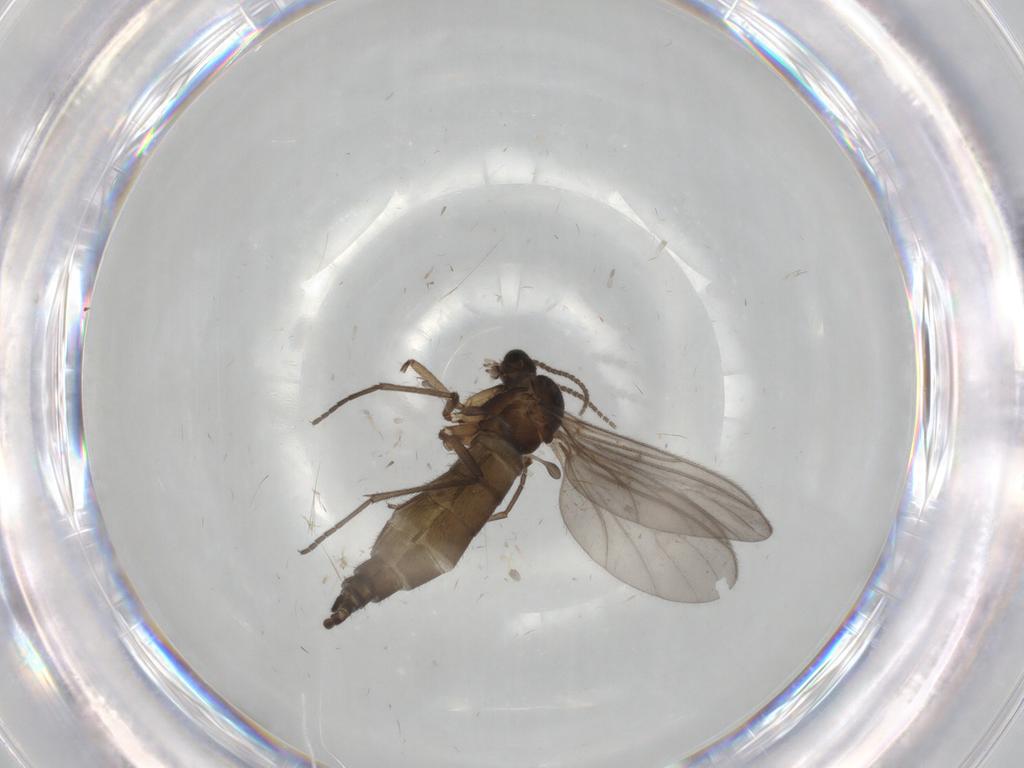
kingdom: Animalia
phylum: Arthropoda
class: Insecta
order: Diptera
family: Sciaridae
